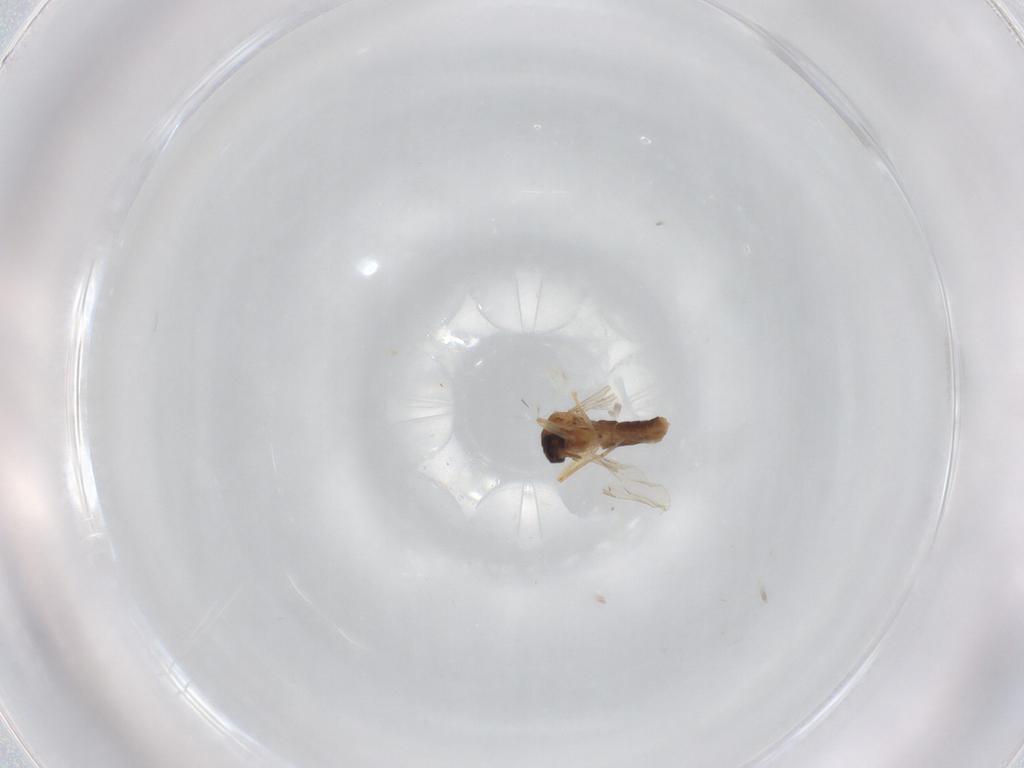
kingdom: Animalia
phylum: Arthropoda
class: Insecta
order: Diptera
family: Ceratopogonidae
